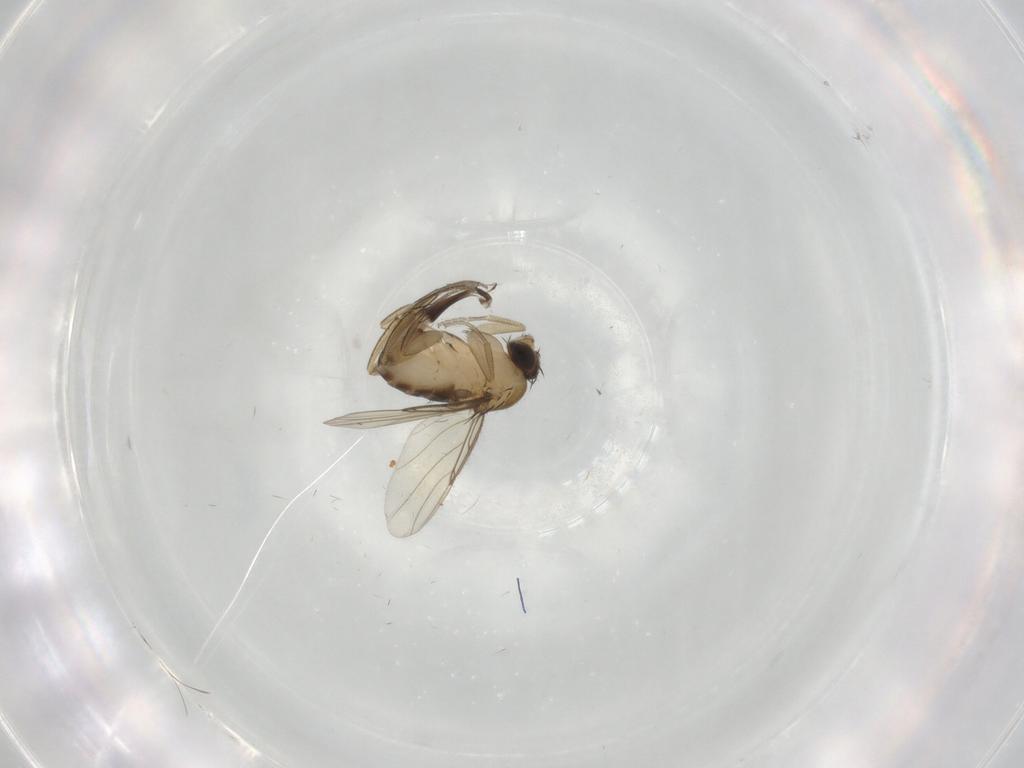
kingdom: Animalia
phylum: Arthropoda
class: Insecta
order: Diptera
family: Phoridae
